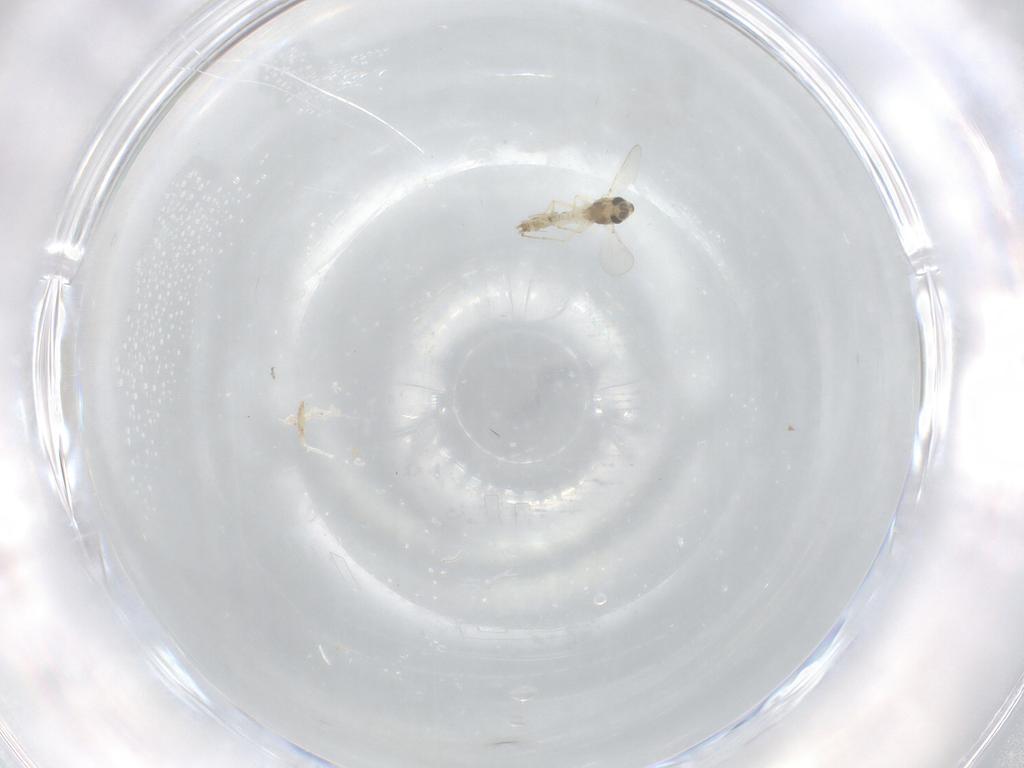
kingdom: Animalia
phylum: Arthropoda
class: Insecta
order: Diptera
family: Chironomidae
